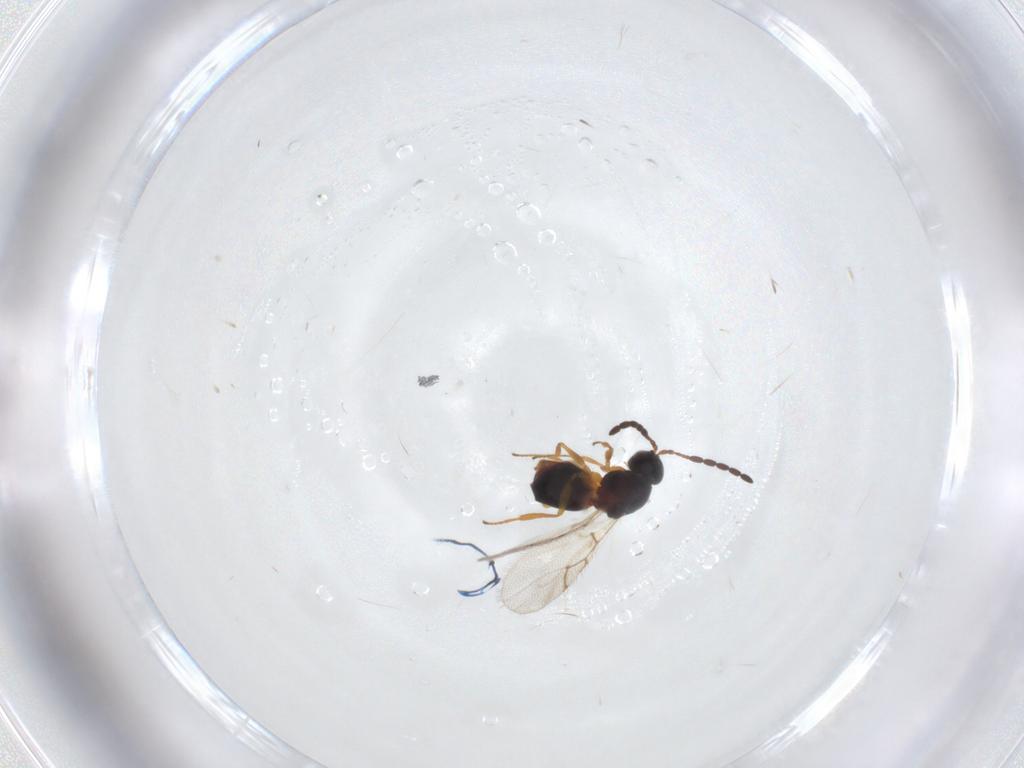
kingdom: Animalia
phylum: Arthropoda
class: Insecta
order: Hymenoptera
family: Figitidae
